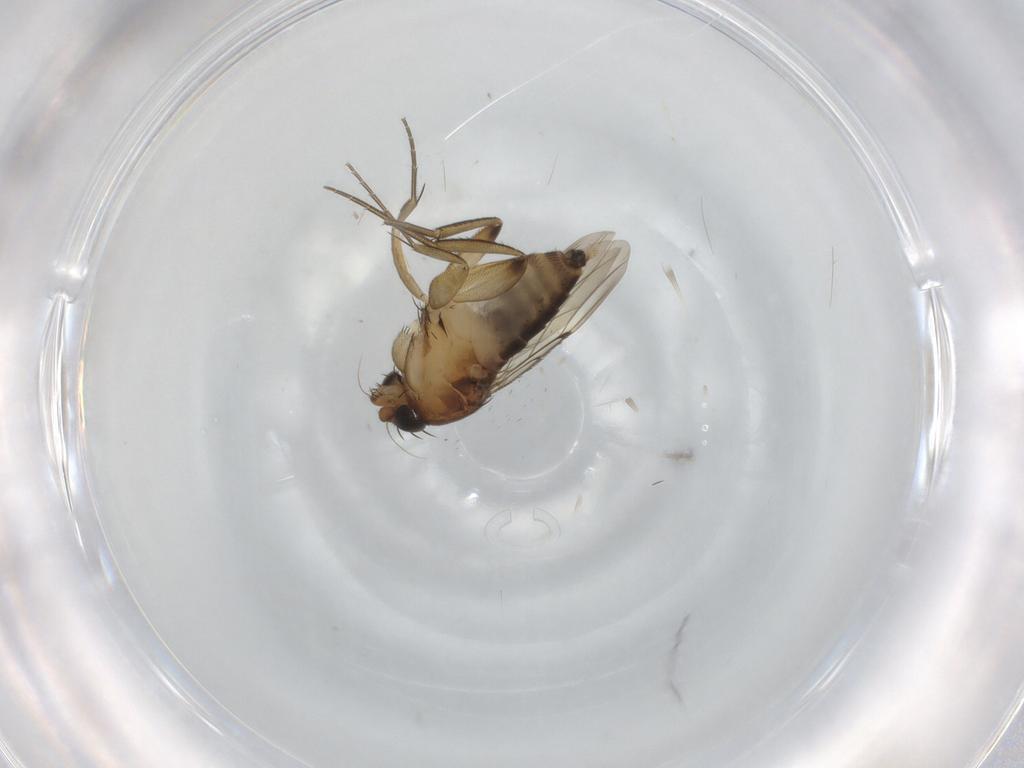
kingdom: Animalia
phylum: Arthropoda
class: Insecta
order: Diptera
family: Phoridae
